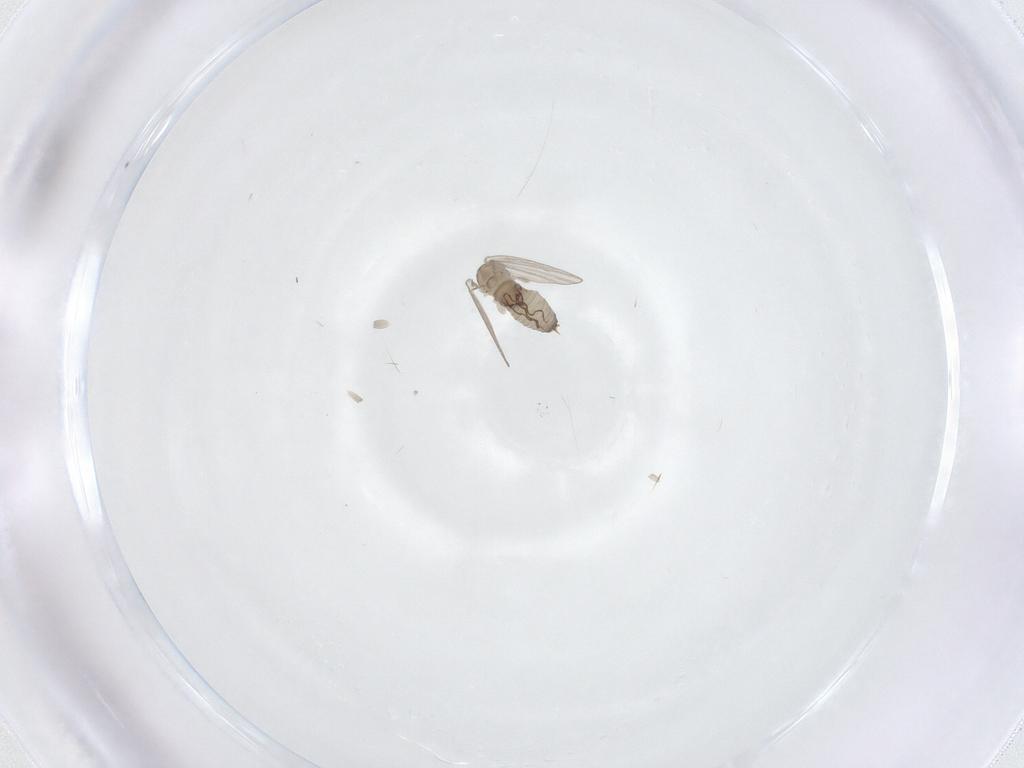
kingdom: Animalia
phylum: Arthropoda
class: Insecta
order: Diptera
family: Psychodidae
